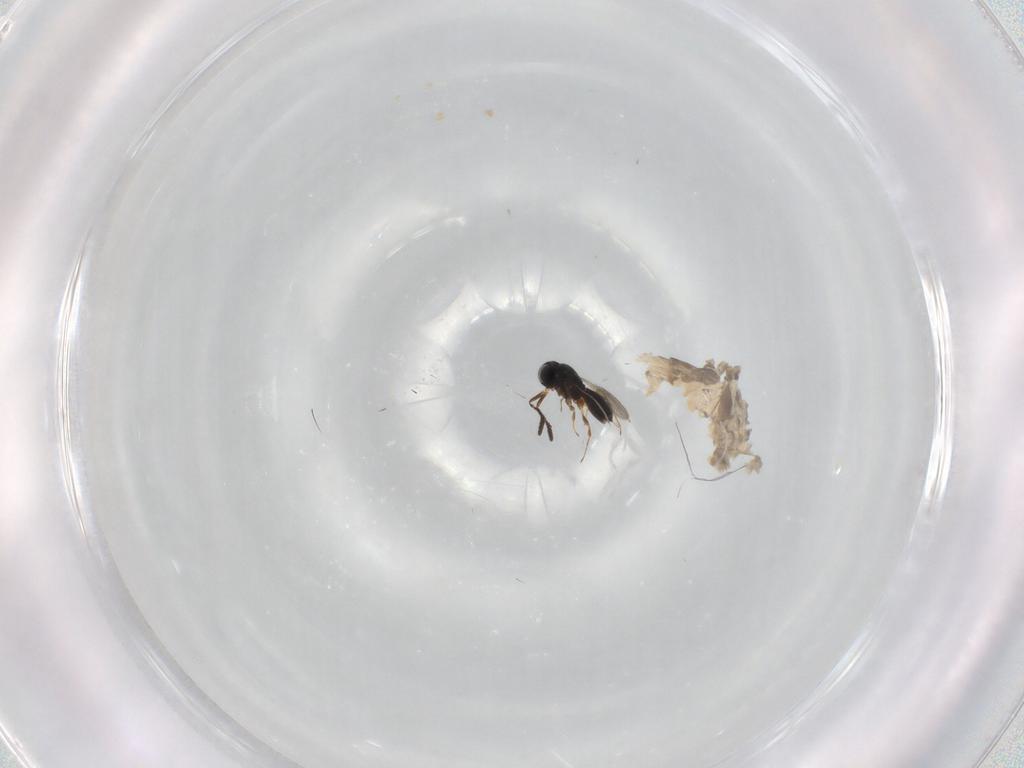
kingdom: Animalia
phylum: Arthropoda
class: Insecta
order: Hymenoptera
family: Scelionidae
